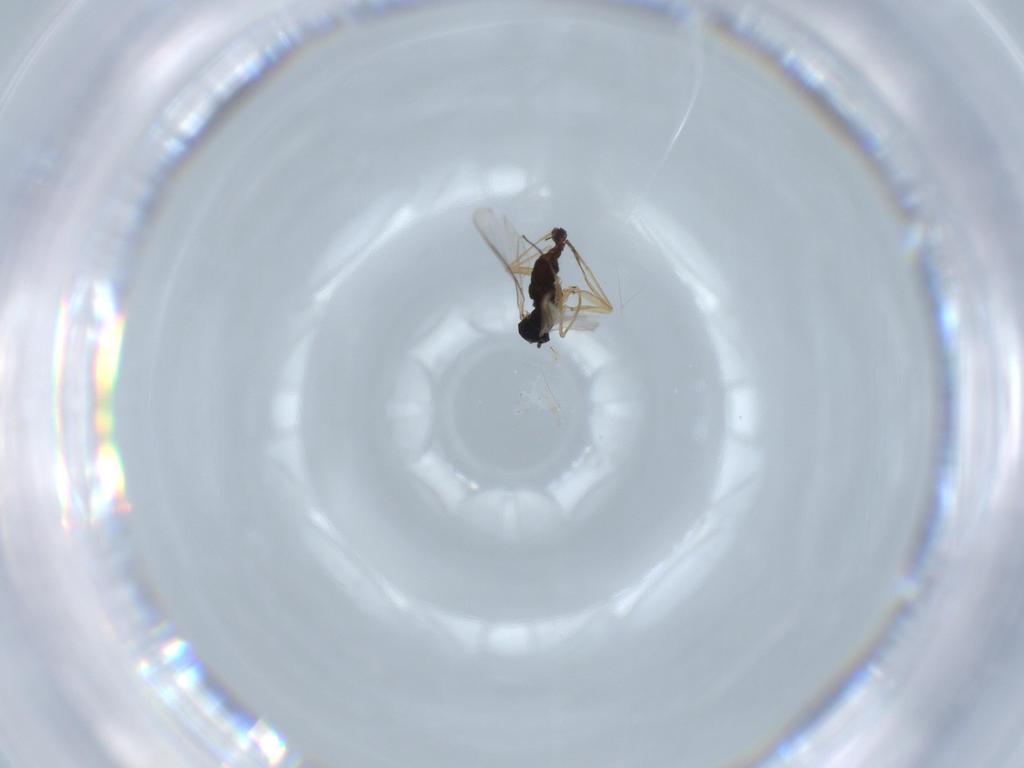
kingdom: Animalia
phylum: Arthropoda
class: Insecta
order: Diptera
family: Sciaridae
